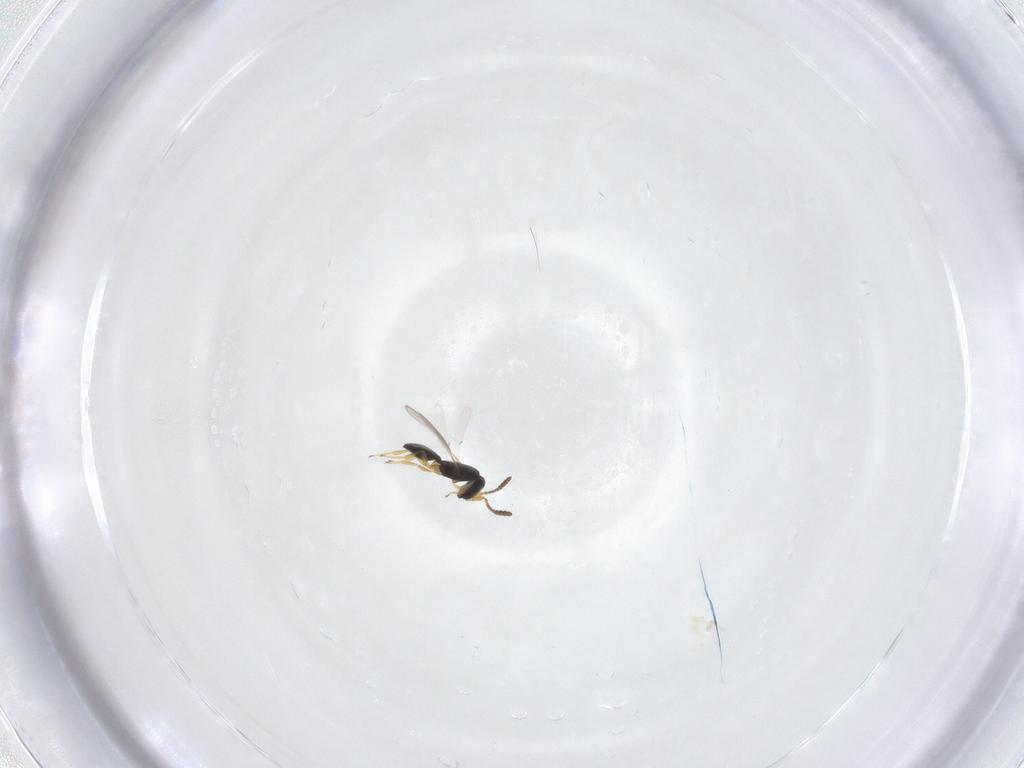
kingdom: Animalia
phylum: Arthropoda
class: Insecta
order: Hymenoptera
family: Scelionidae
